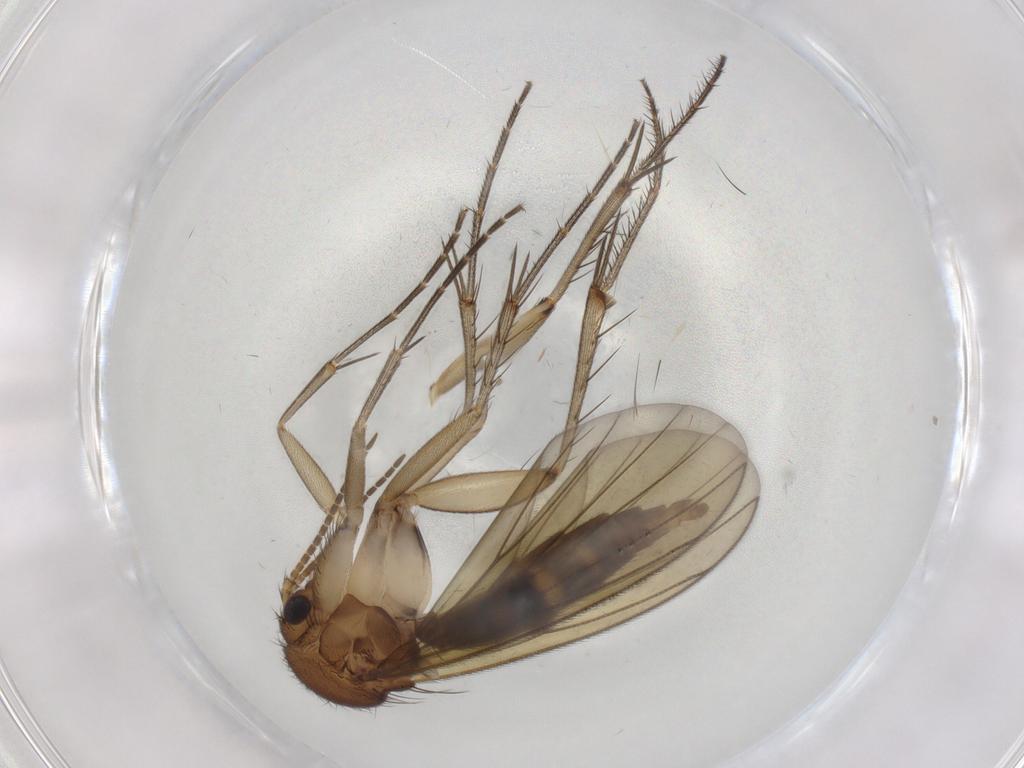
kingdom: Animalia
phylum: Arthropoda
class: Insecta
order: Diptera
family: Mycetophilidae
